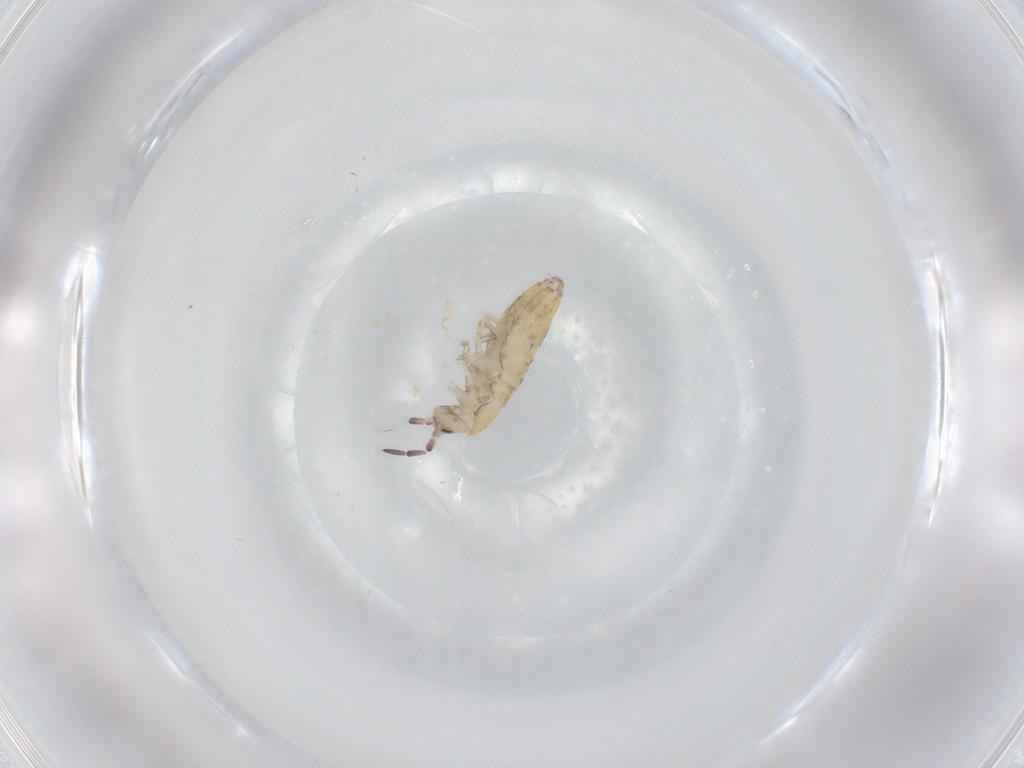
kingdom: Animalia
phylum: Arthropoda
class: Collembola
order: Entomobryomorpha
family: Entomobryidae
